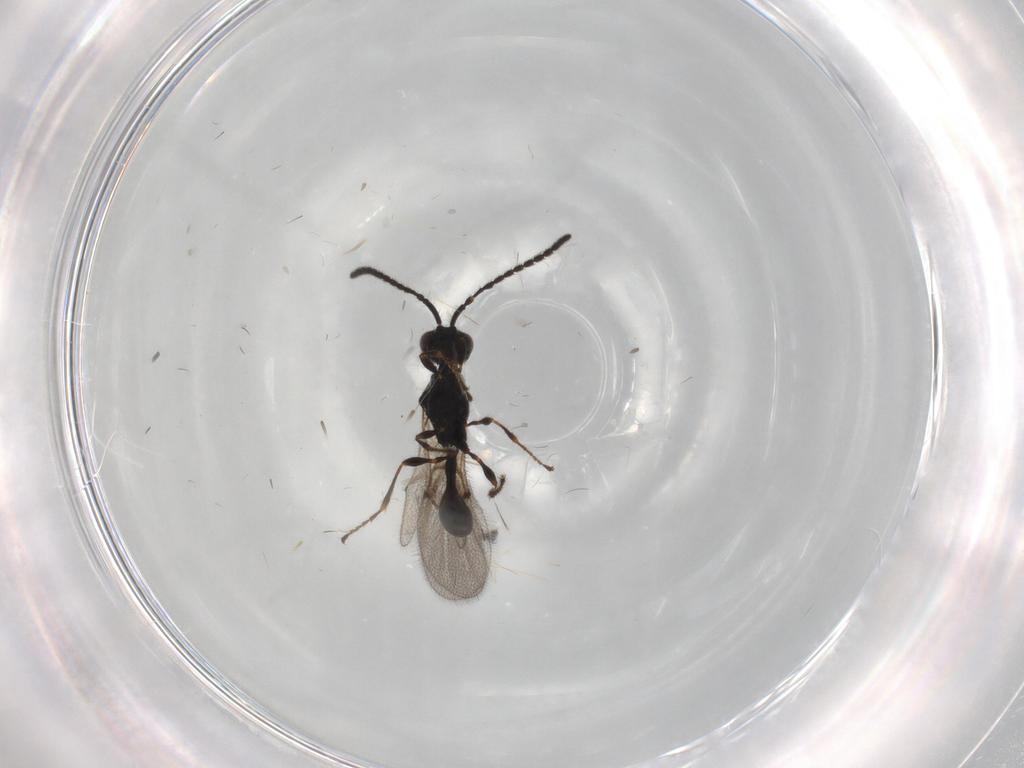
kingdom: Animalia
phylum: Arthropoda
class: Insecta
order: Hymenoptera
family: Diapriidae
